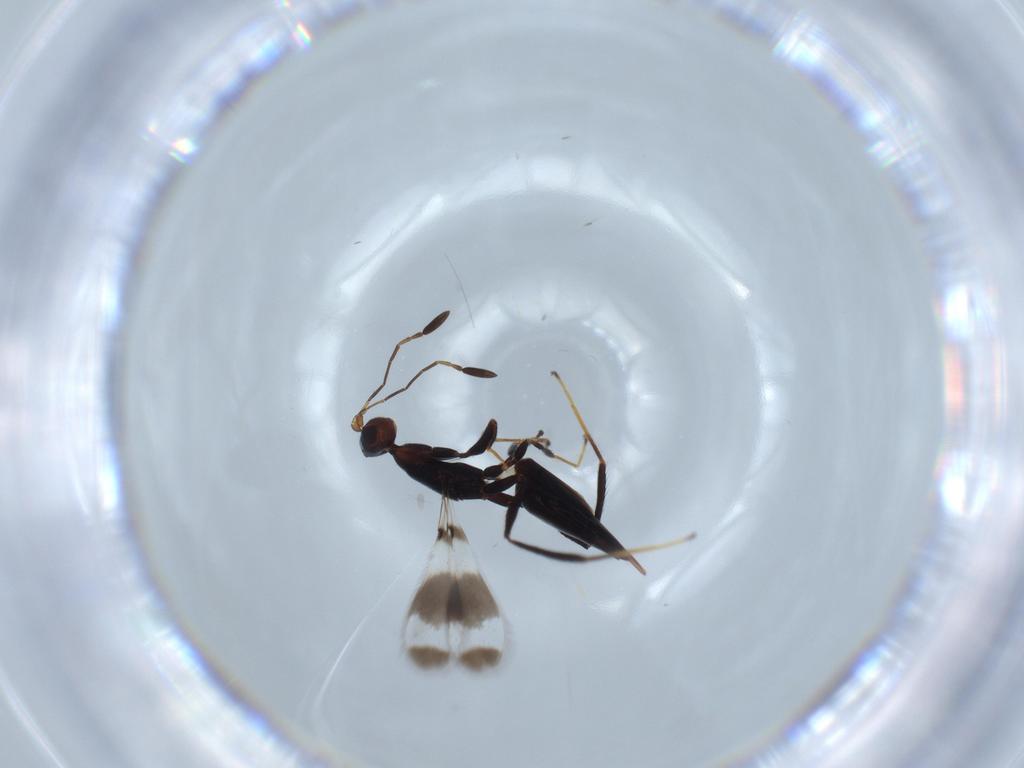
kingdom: Animalia
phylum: Arthropoda
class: Insecta
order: Hymenoptera
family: Mymaridae
